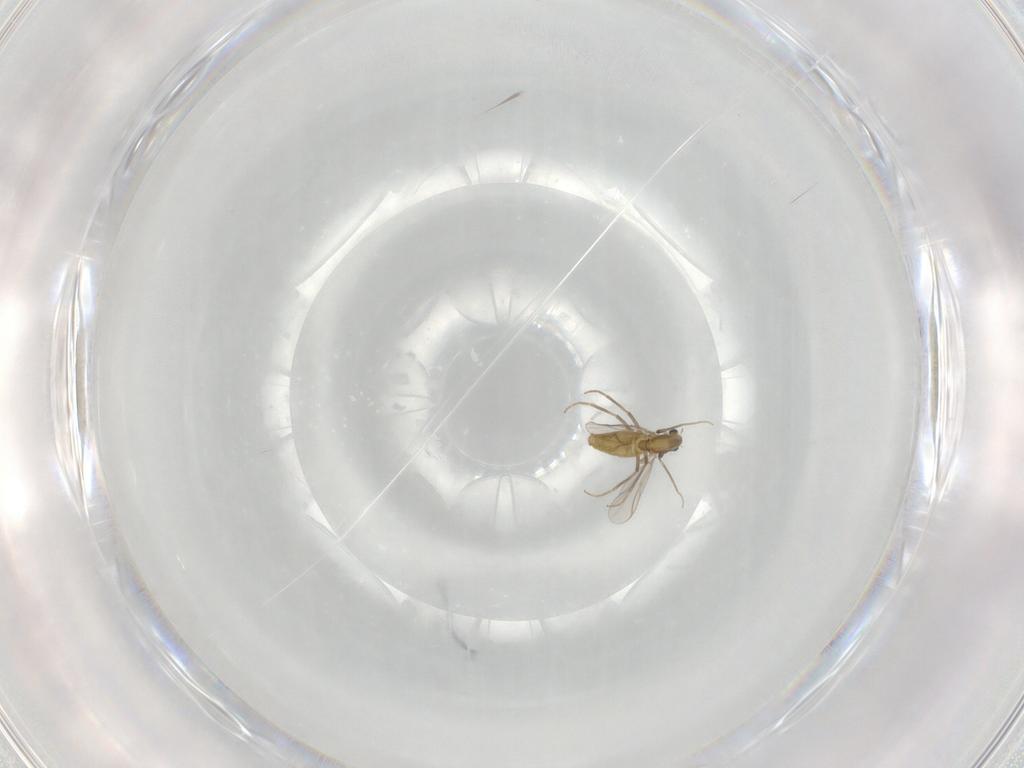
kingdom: Animalia
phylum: Arthropoda
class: Insecta
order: Diptera
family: Chironomidae
